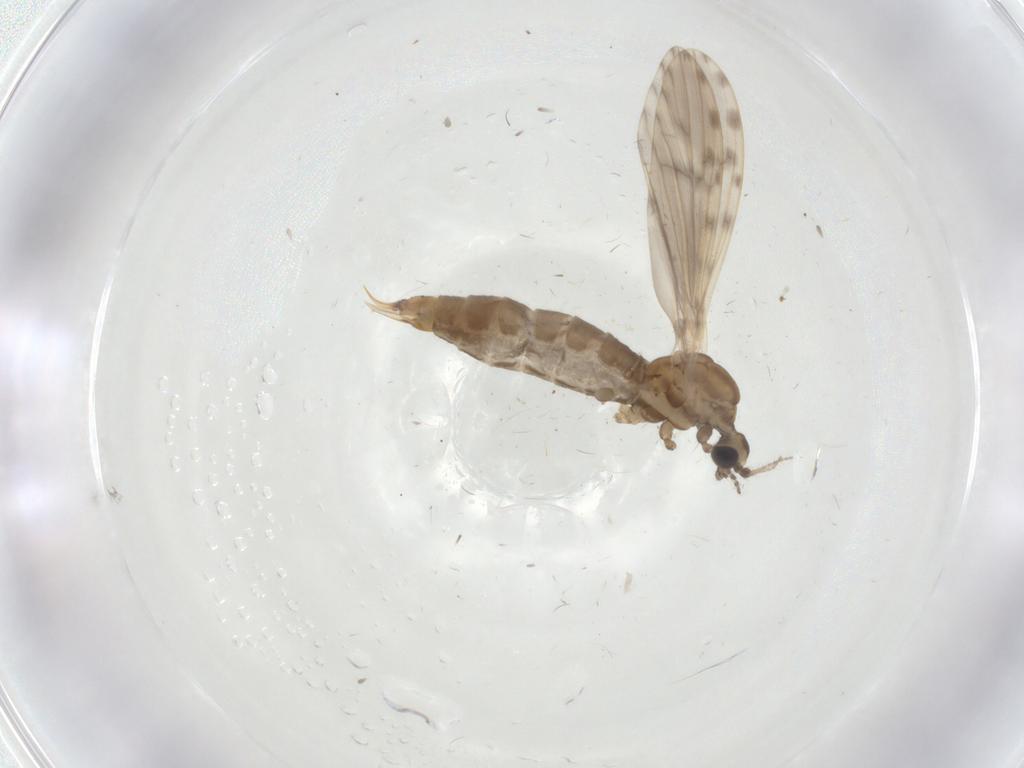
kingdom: Animalia
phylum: Arthropoda
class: Insecta
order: Diptera
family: Limoniidae
